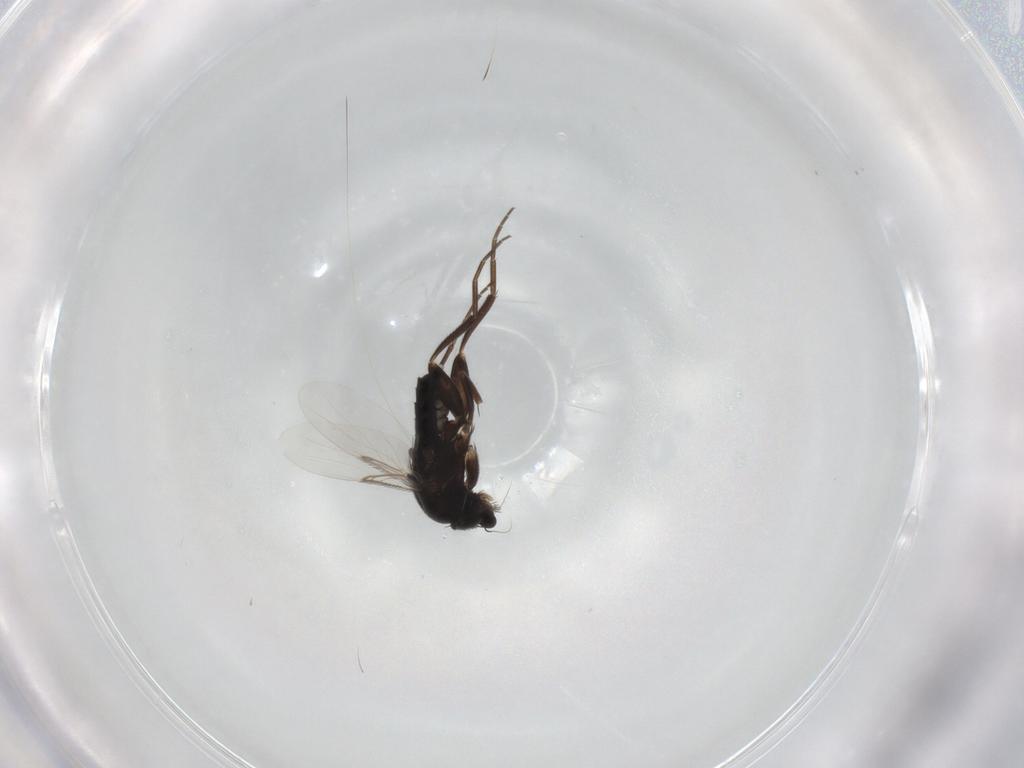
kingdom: Animalia
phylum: Arthropoda
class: Insecta
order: Diptera
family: Phoridae
